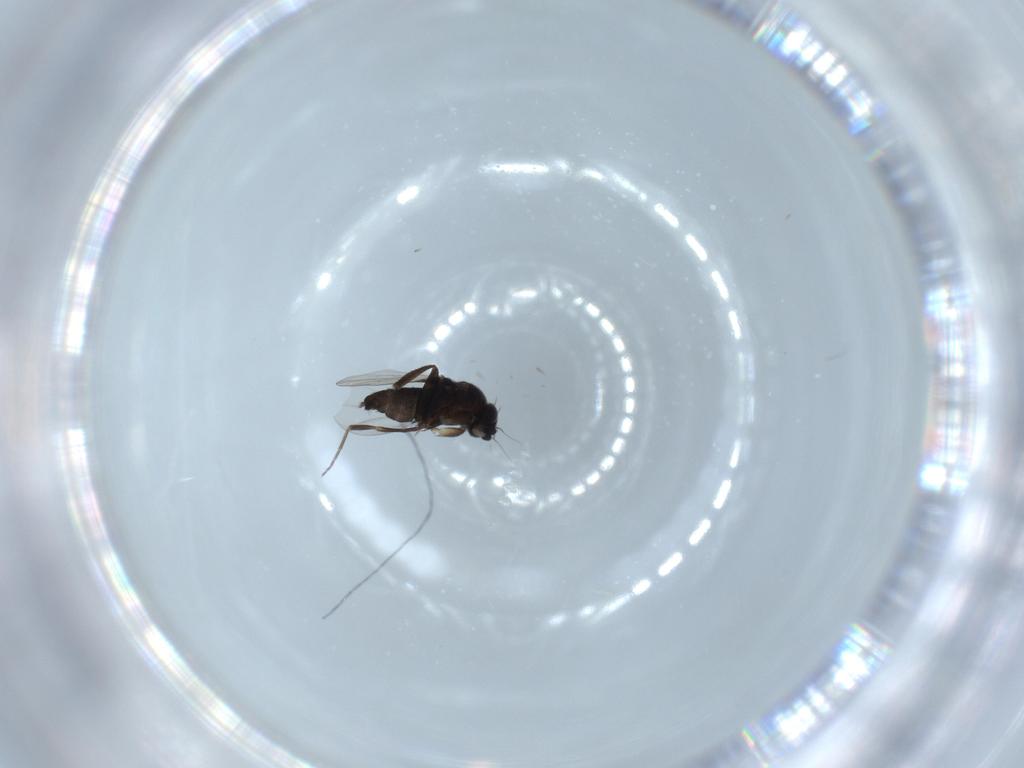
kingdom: Animalia
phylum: Arthropoda
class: Insecta
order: Diptera
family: Phoridae
